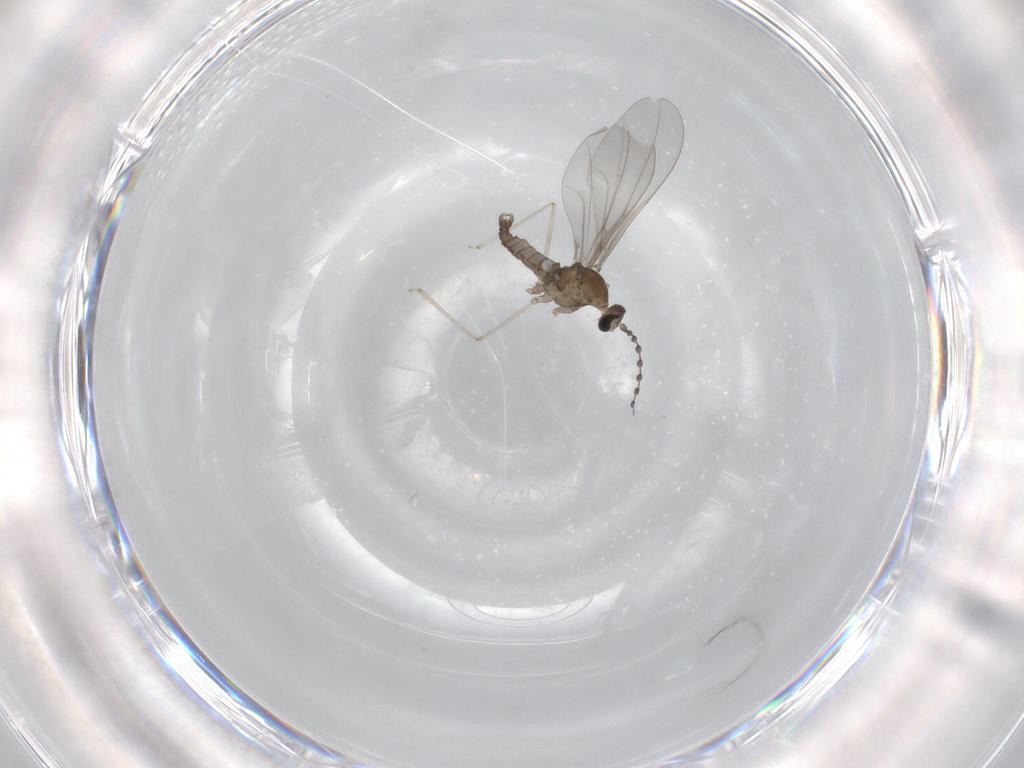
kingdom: Animalia
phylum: Arthropoda
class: Insecta
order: Diptera
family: Cecidomyiidae
